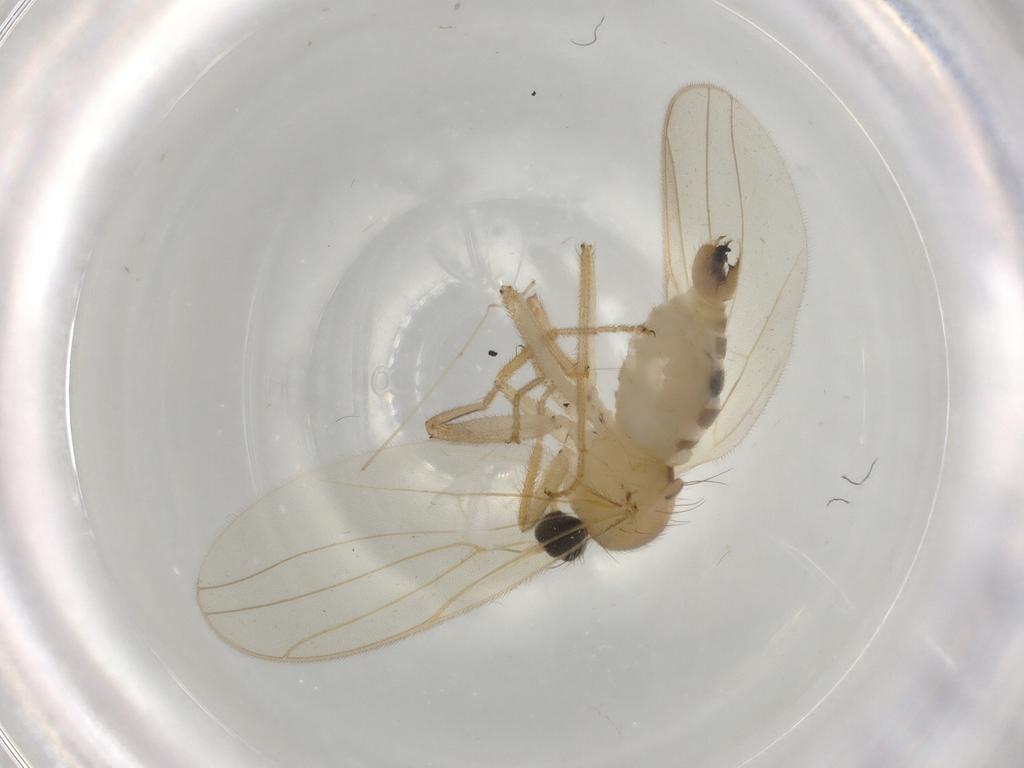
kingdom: Animalia
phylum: Arthropoda
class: Insecta
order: Diptera
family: Hybotidae
